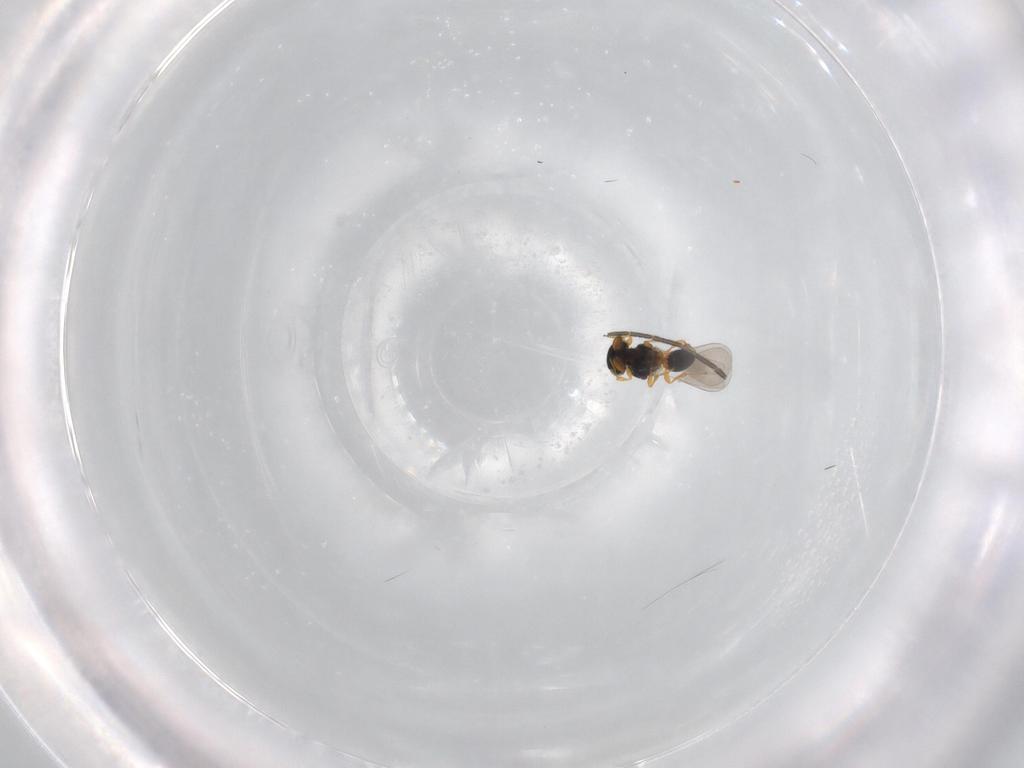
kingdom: Animalia
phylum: Arthropoda
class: Insecta
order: Hymenoptera
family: Platygastridae
